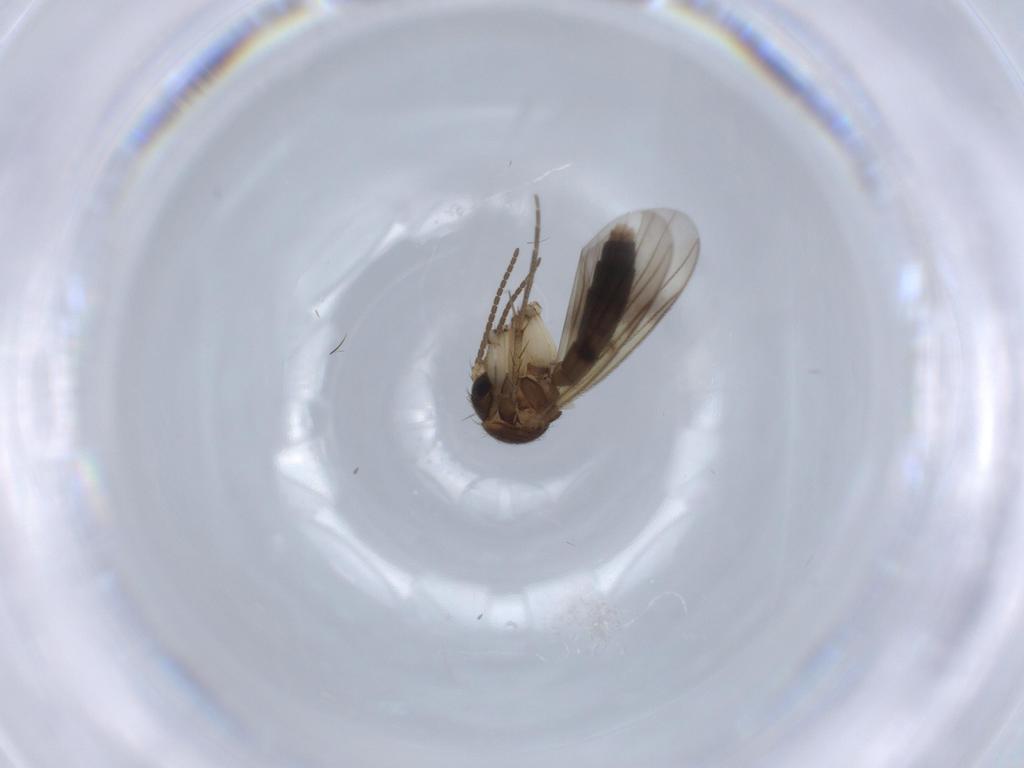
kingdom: Animalia
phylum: Arthropoda
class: Insecta
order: Diptera
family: Phoridae
